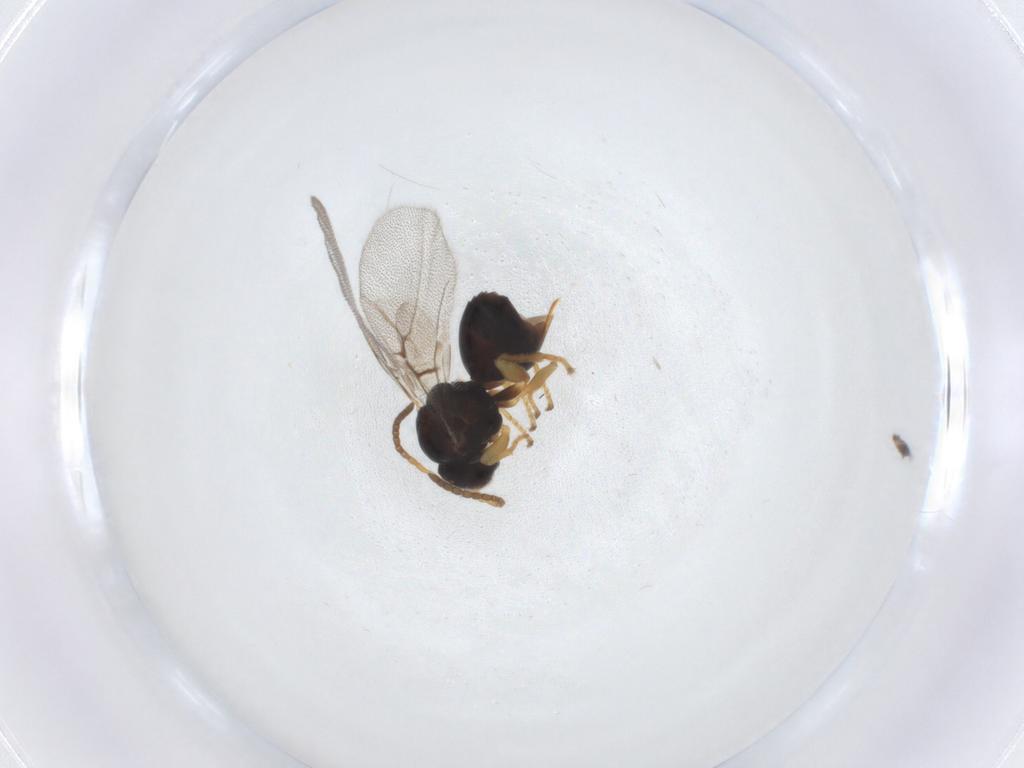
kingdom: Animalia
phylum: Arthropoda
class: Insecta
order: Hymenoptera
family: Cynipidae
